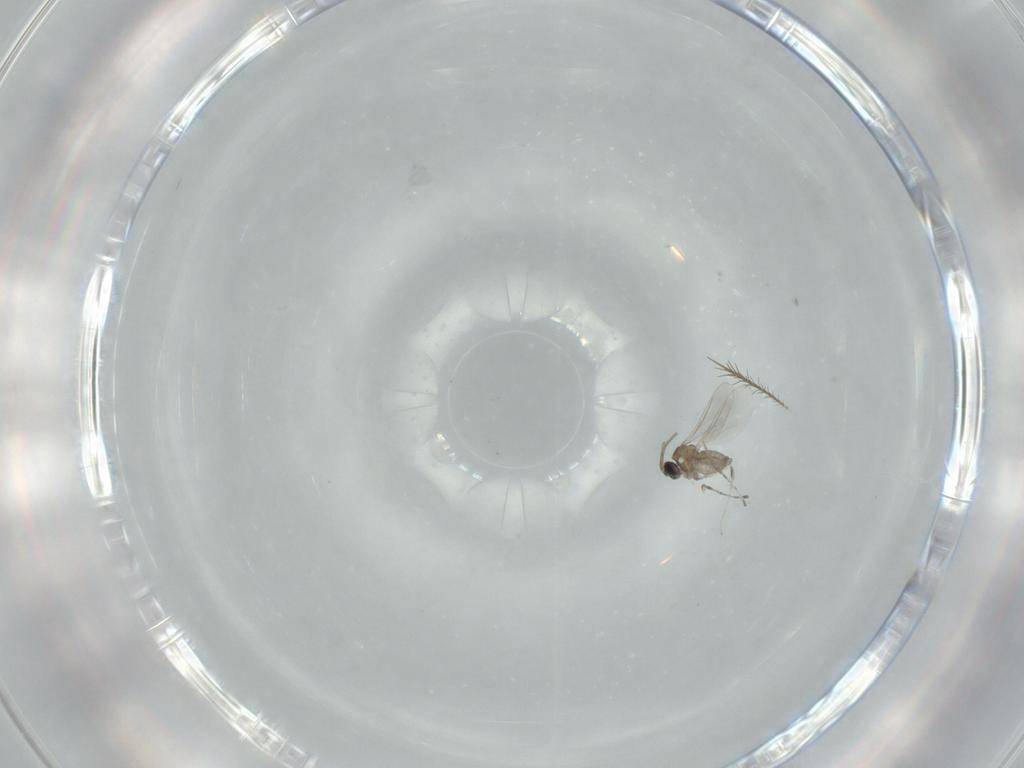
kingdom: Animalia
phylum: Arthropoda
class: Insecta
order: Diptera
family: Cecidomyiidae
